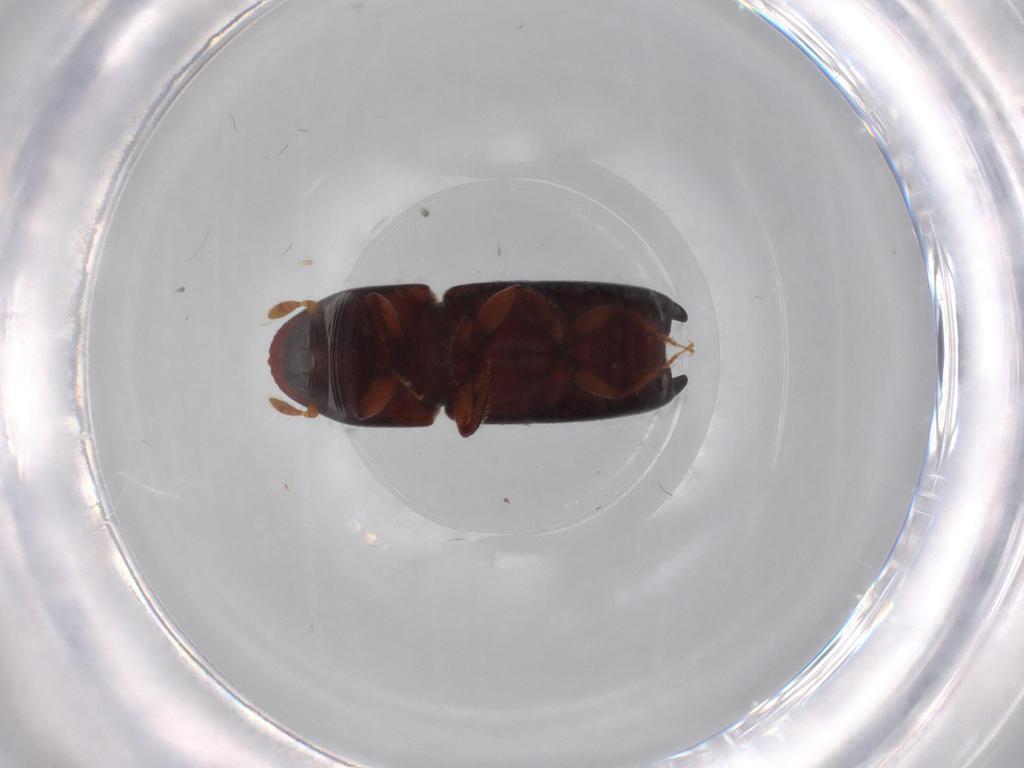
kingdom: Animalia
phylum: Arthropoda
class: Insecta
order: Coleoptera
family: Curculionidae
